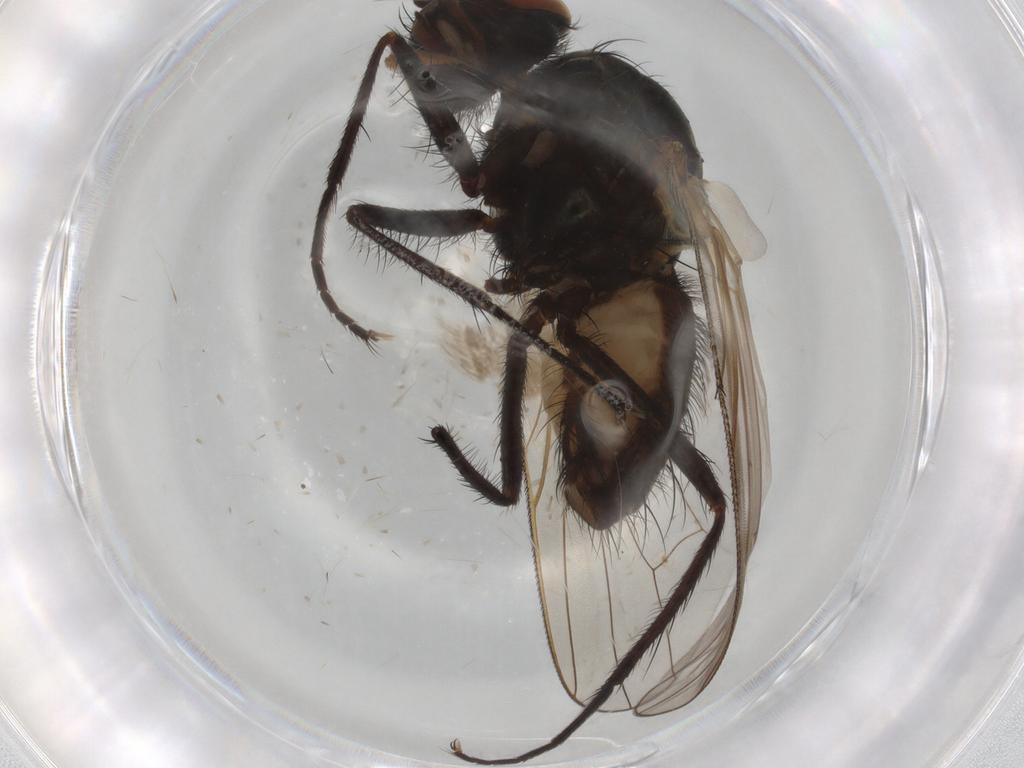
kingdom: Animalia
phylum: Arthropoda
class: Insecta
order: Diptera
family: Anthomyiidae
